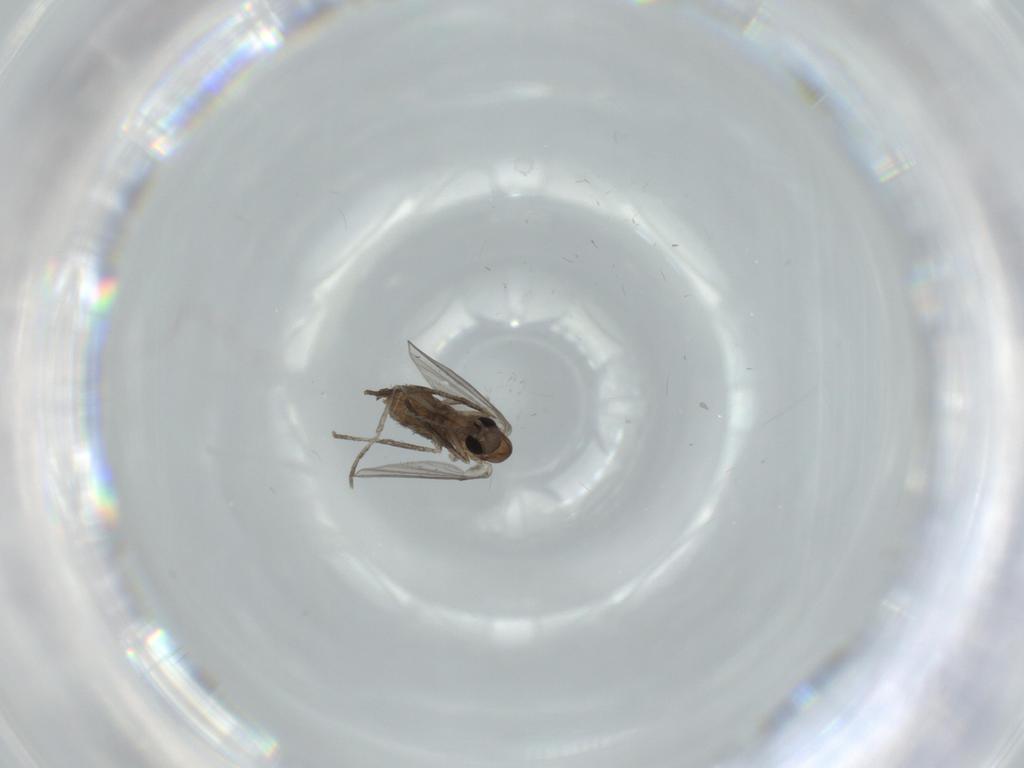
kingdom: Animalia
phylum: Arthropoda
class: Insecta
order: Diptera
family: Psychodidae
